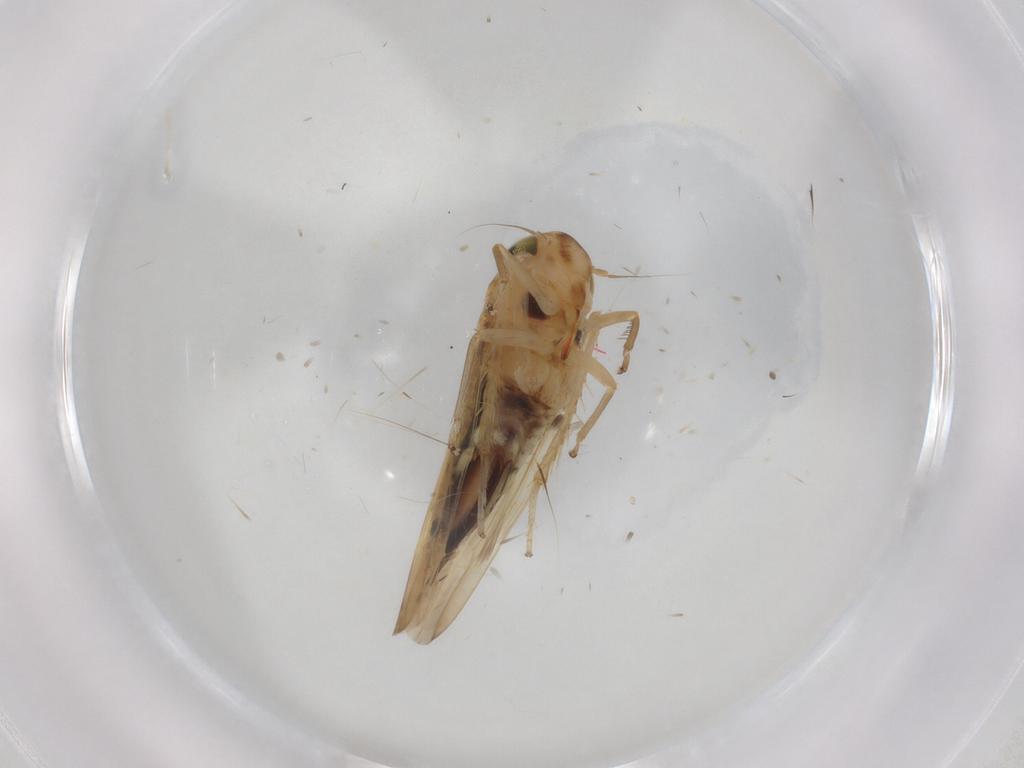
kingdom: Animalia
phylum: Arthropoda
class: Insecta
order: Hemiptera
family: Cicadellidae
